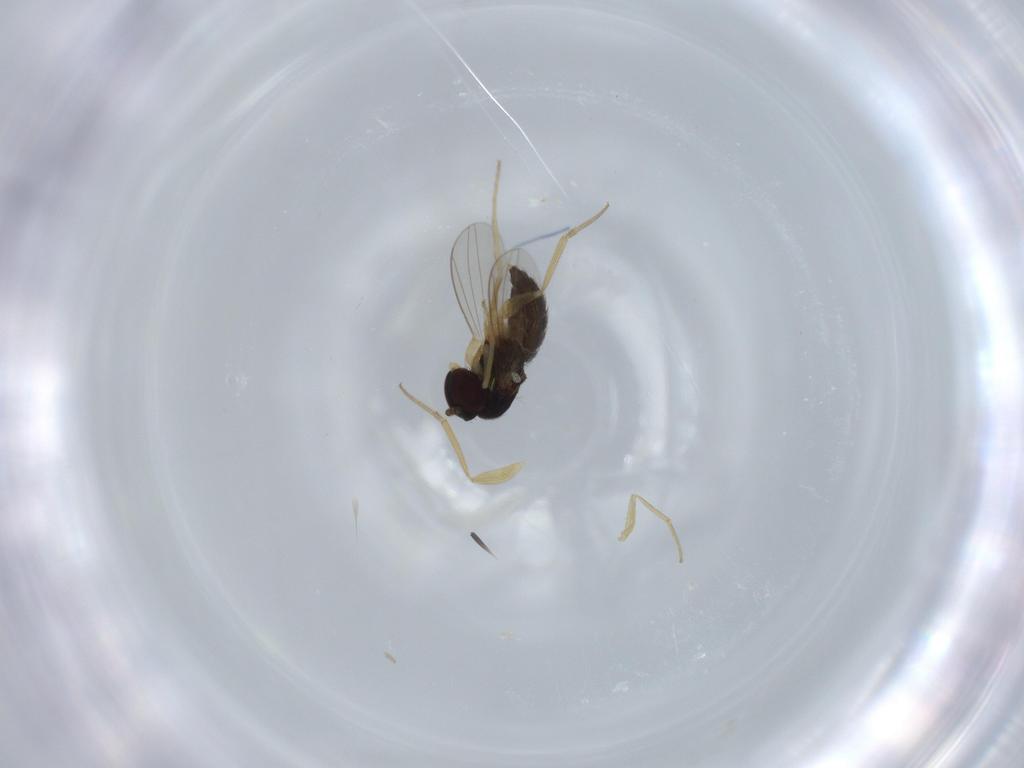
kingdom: Animalia
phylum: Arthropoda
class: Insecta
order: Diptera
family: Dolichopodidae
